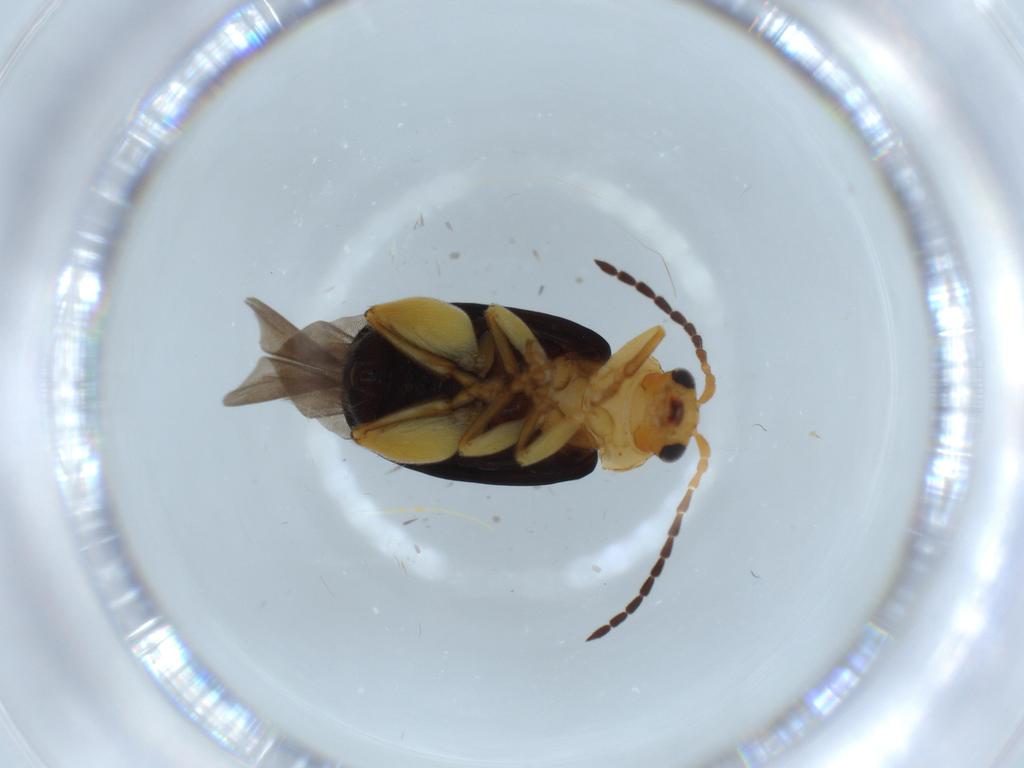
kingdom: Animalia
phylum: Arthropoda
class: Insecta
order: Coleoptera
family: Chrysomelidae
